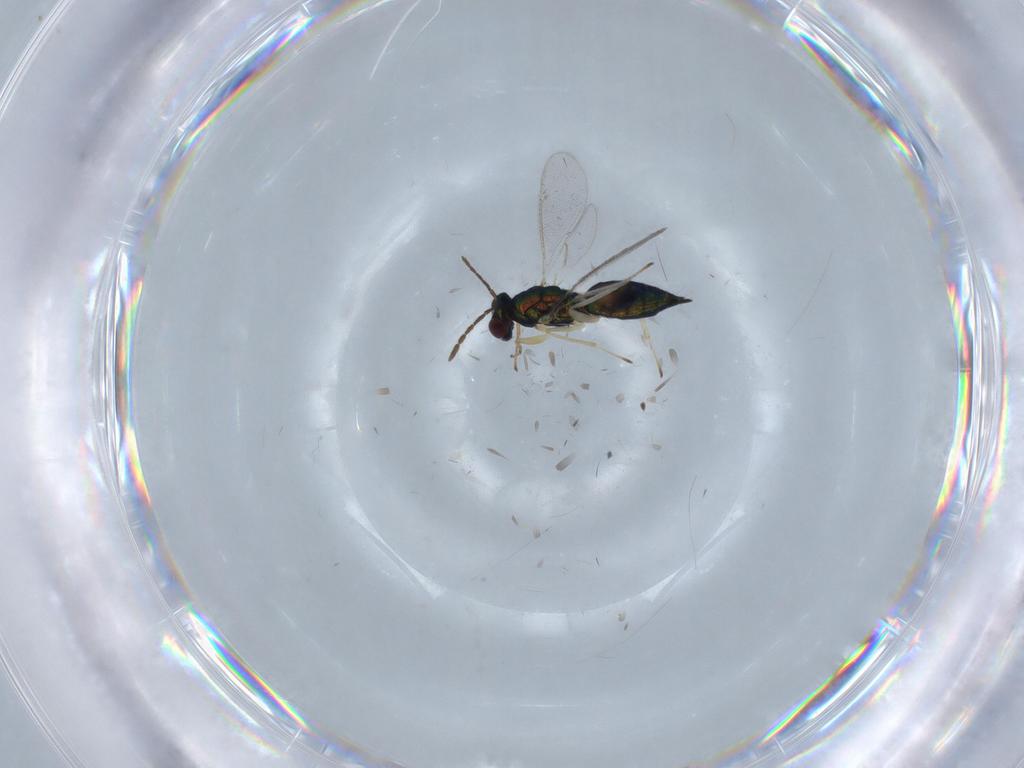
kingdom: Animalia
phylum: Arthropoda
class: Insecta
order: Hymenoptera
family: Eulophidae
